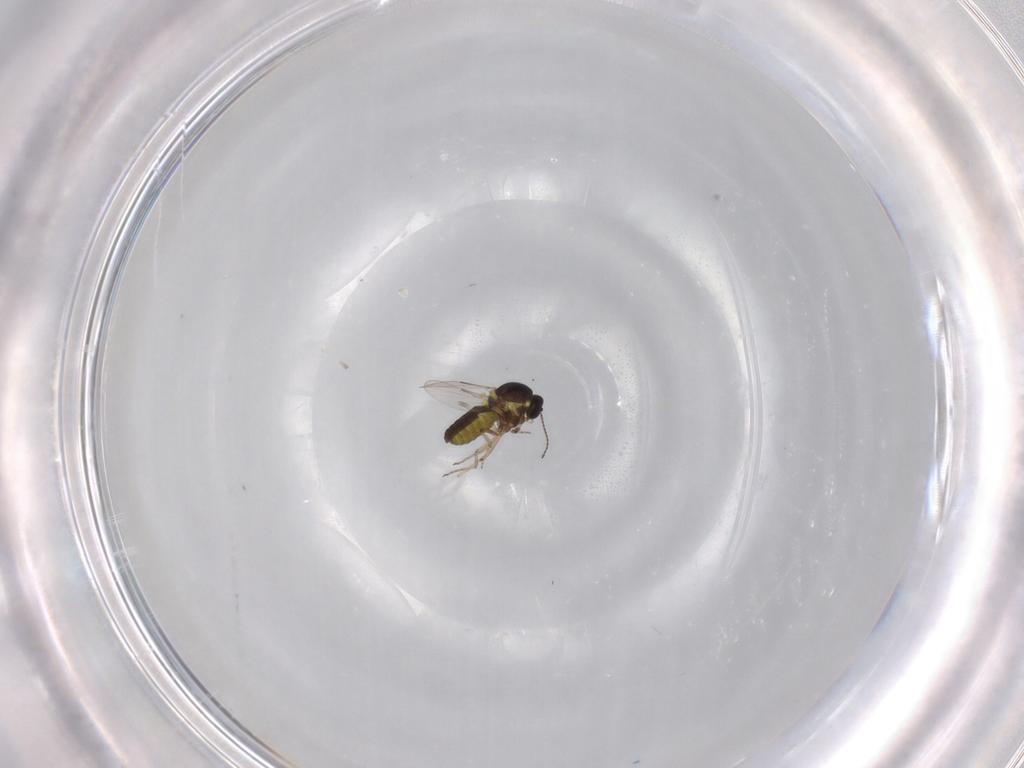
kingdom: Animalia
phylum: Arthropoda
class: Insecta
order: Diptera
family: Ceratopogonidae
